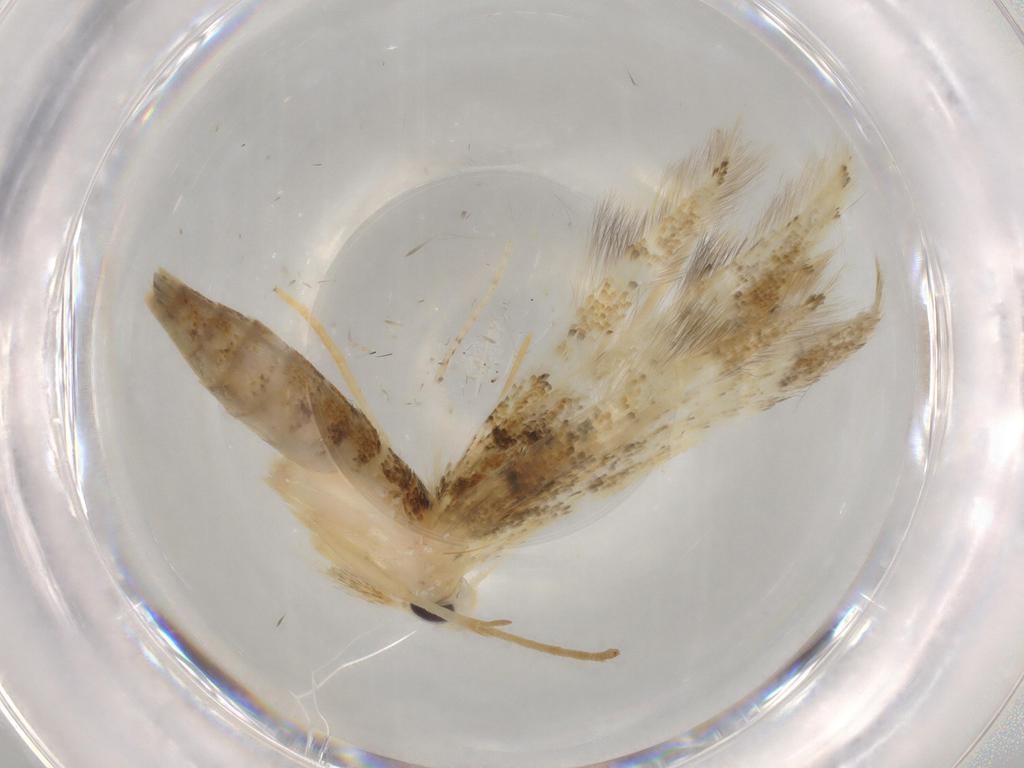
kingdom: Animalia
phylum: Arthropoda
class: Insecta
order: Lepidoptera
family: Gelechiidae
